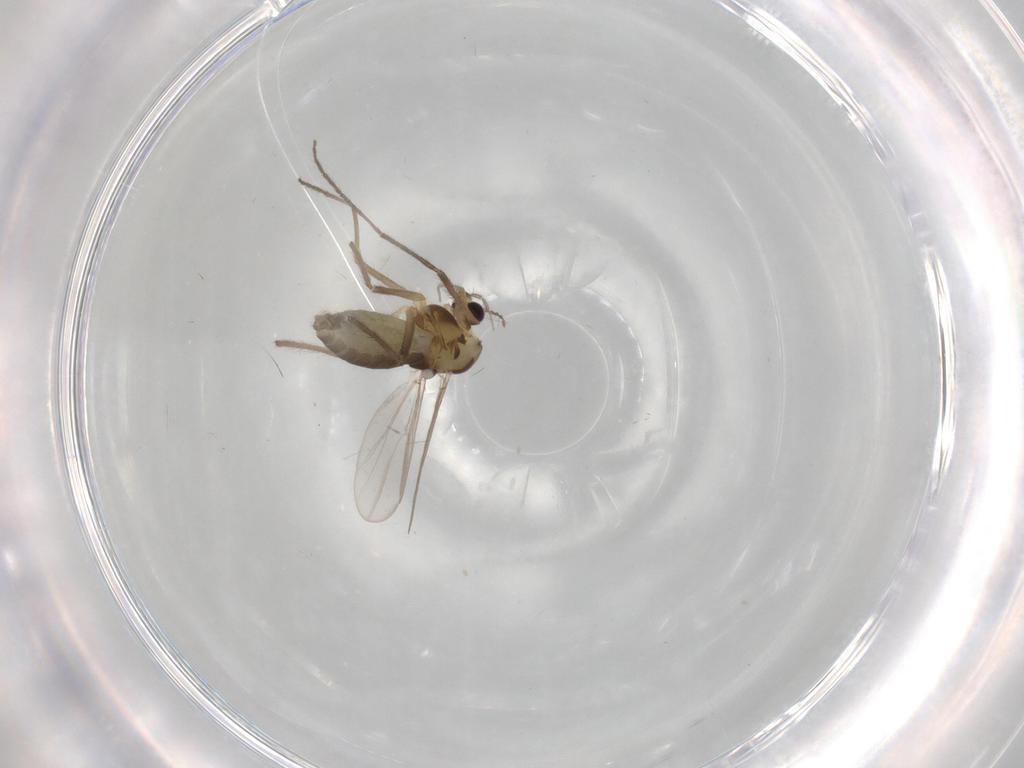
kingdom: Animalia
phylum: Arthropoda
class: Insecta
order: Diptera
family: Chironomidae
